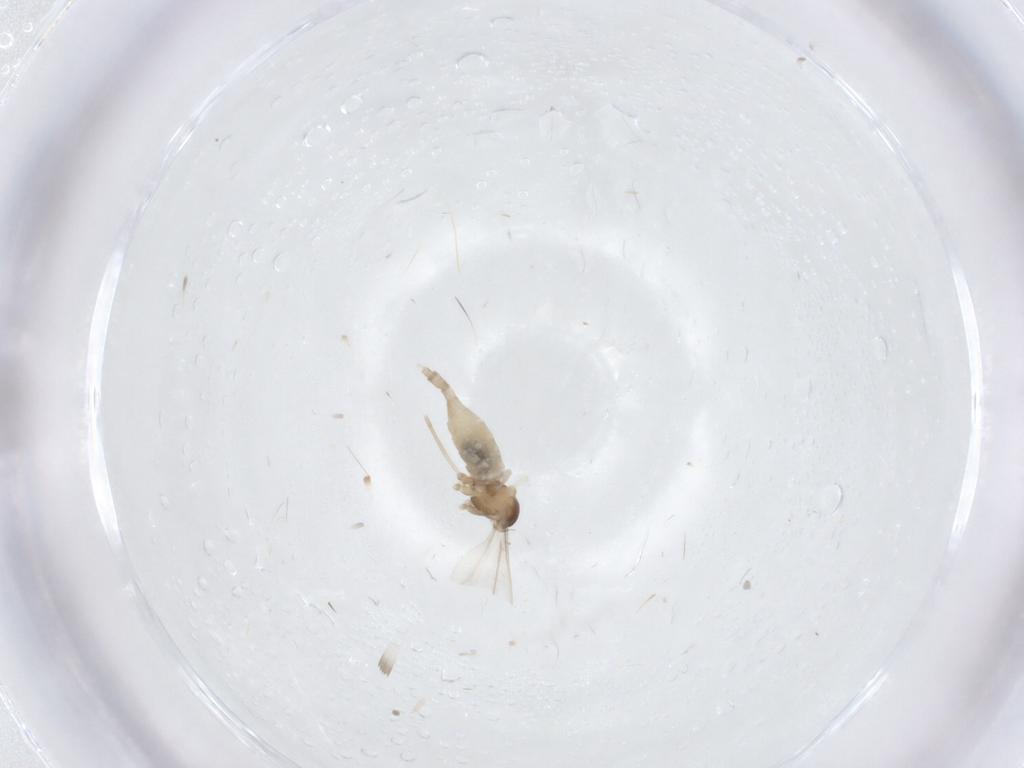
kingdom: Animalia
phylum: Arthropoda
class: Insecta
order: Diptera
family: Cecidomyiidae
